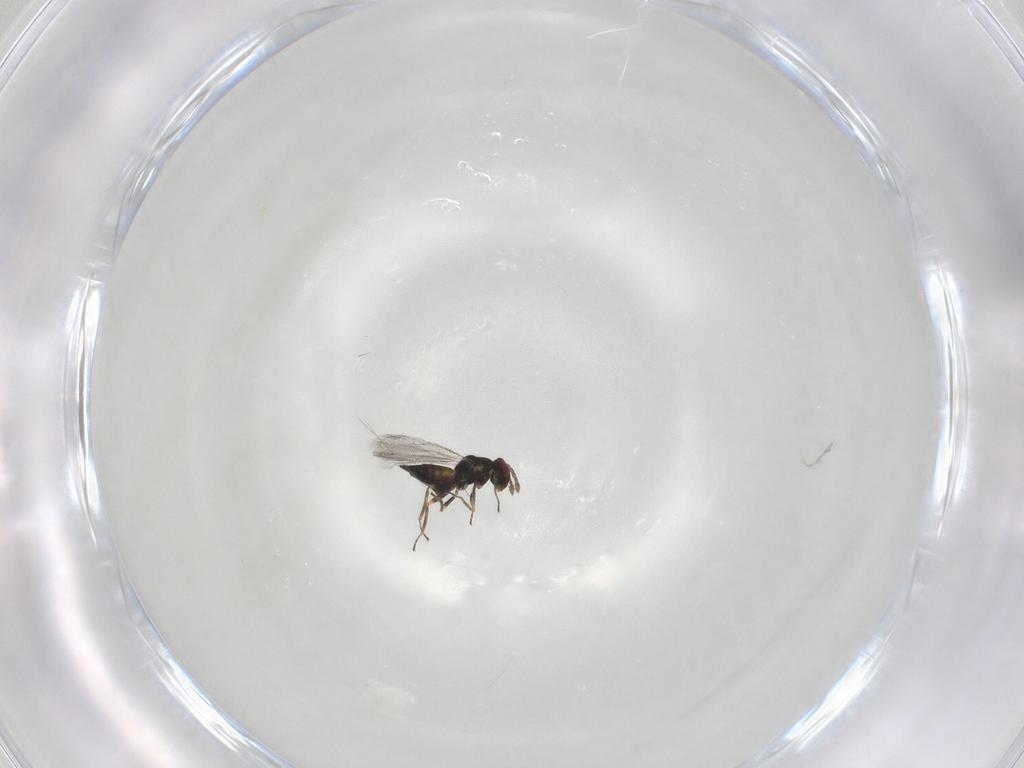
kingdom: Animalia
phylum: Arthropoda
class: Insecta
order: Hymenoptera
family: Eulophidae
